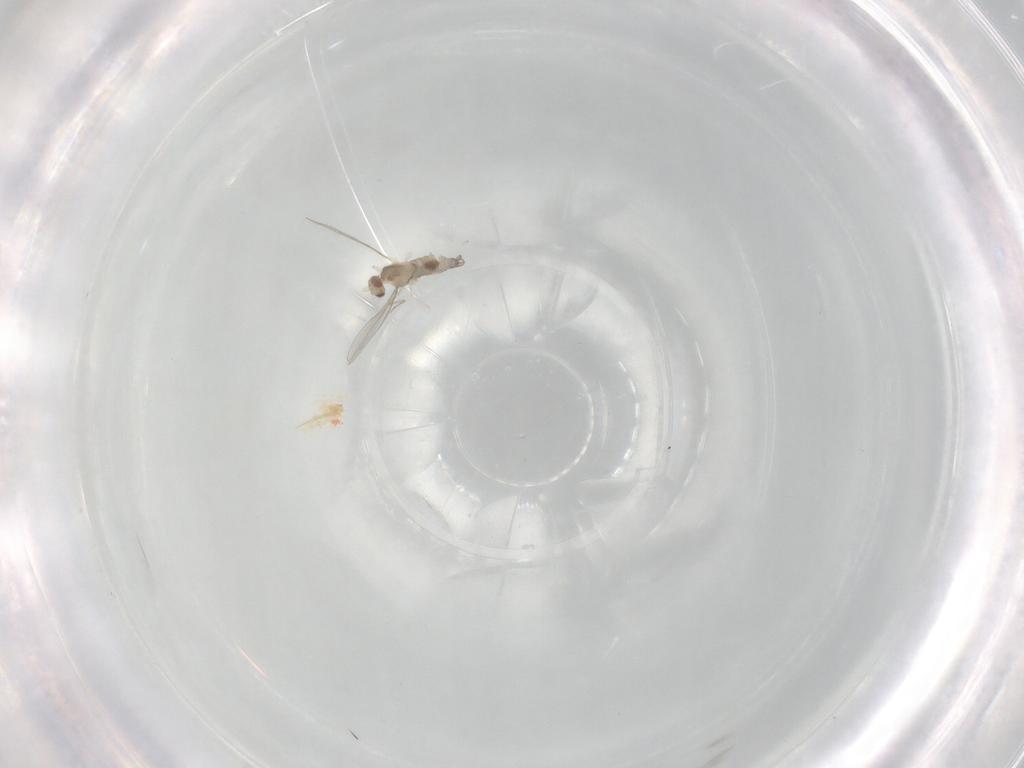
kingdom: Animalia
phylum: Arthropoda
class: Insecta
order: Diptera
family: Cecidomyiidae
